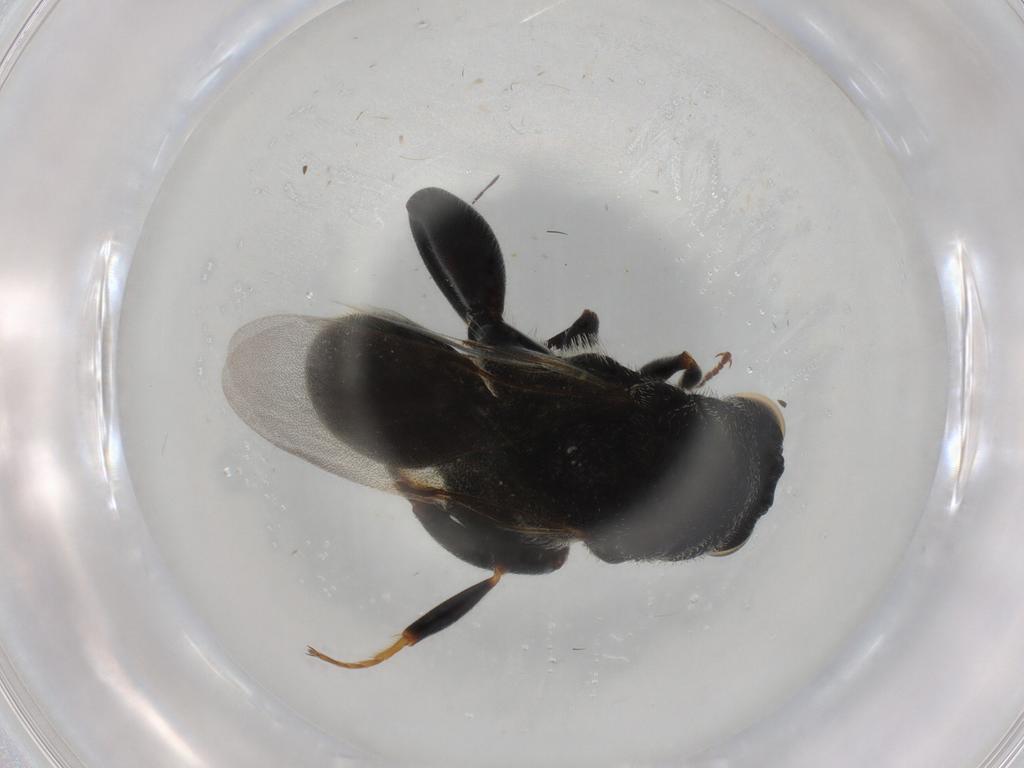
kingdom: Animalia
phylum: Arthropoda
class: Insecta
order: Hymenoptera
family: Chalcididae
